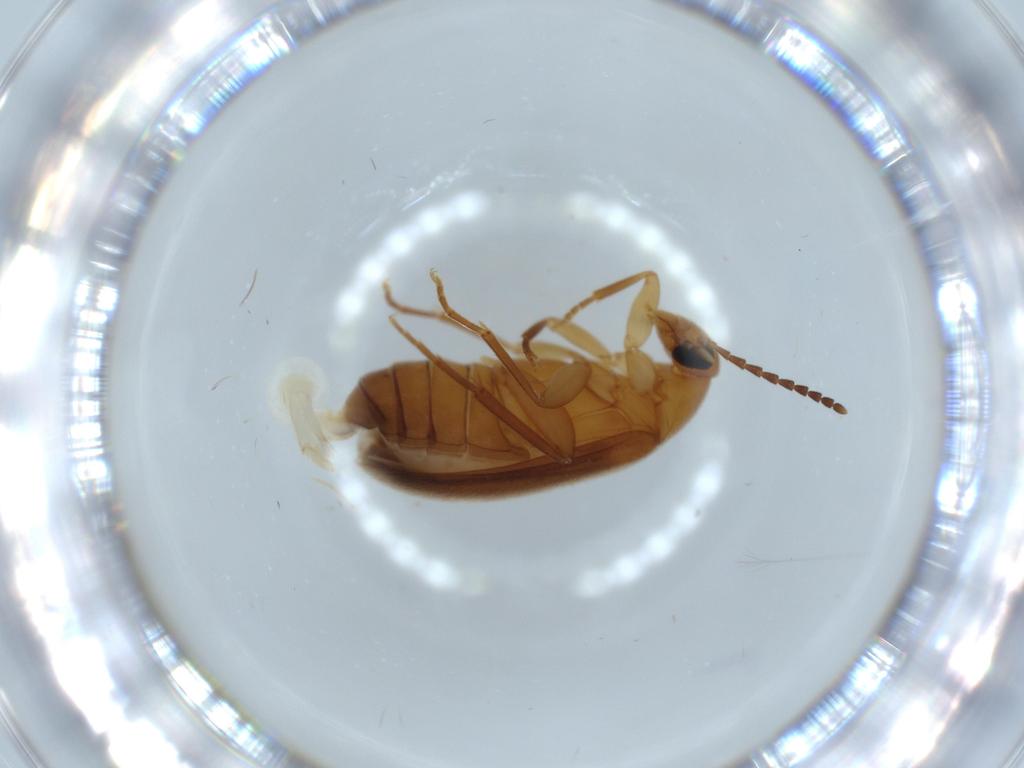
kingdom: Animalia
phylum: Arthropoda
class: Insecta
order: Coleoptera
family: Scraptiidae
